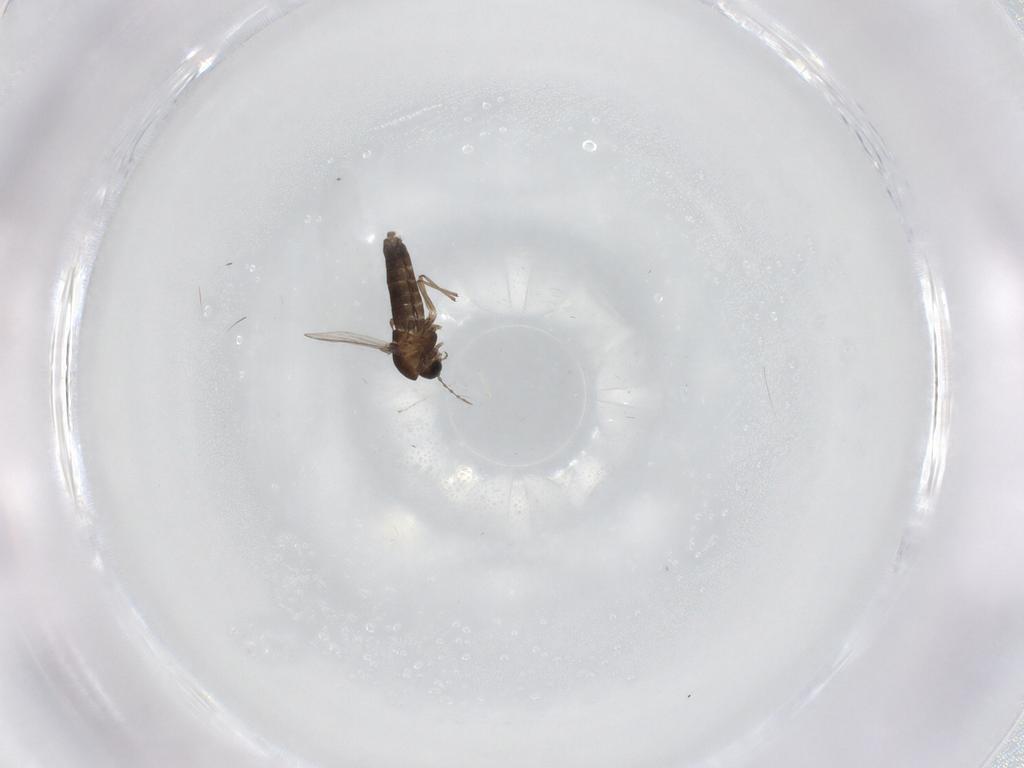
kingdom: Animalia
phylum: Arthropoda
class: Insecta
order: Diptera
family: Chironomidae
